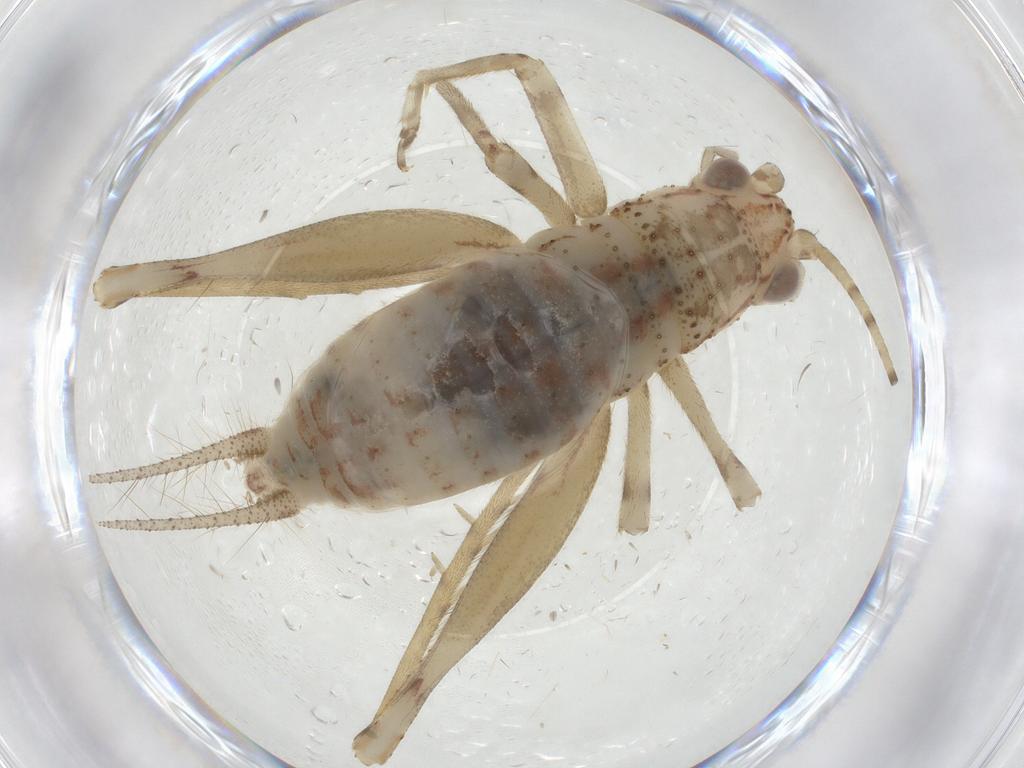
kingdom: Animalia
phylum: Arthropoda
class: Insecta
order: Orthoptera
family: Trigonidiidae
